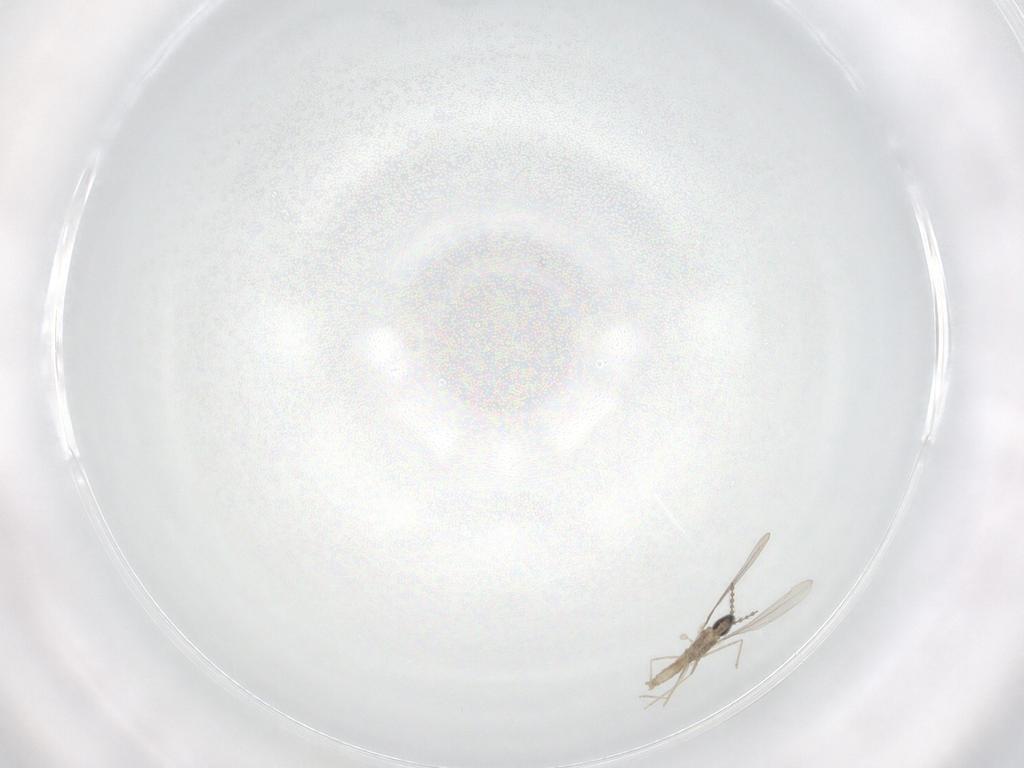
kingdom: Animalia
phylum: Arthropoda
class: Insecta
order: Diptera
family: Cecidomyiidae
